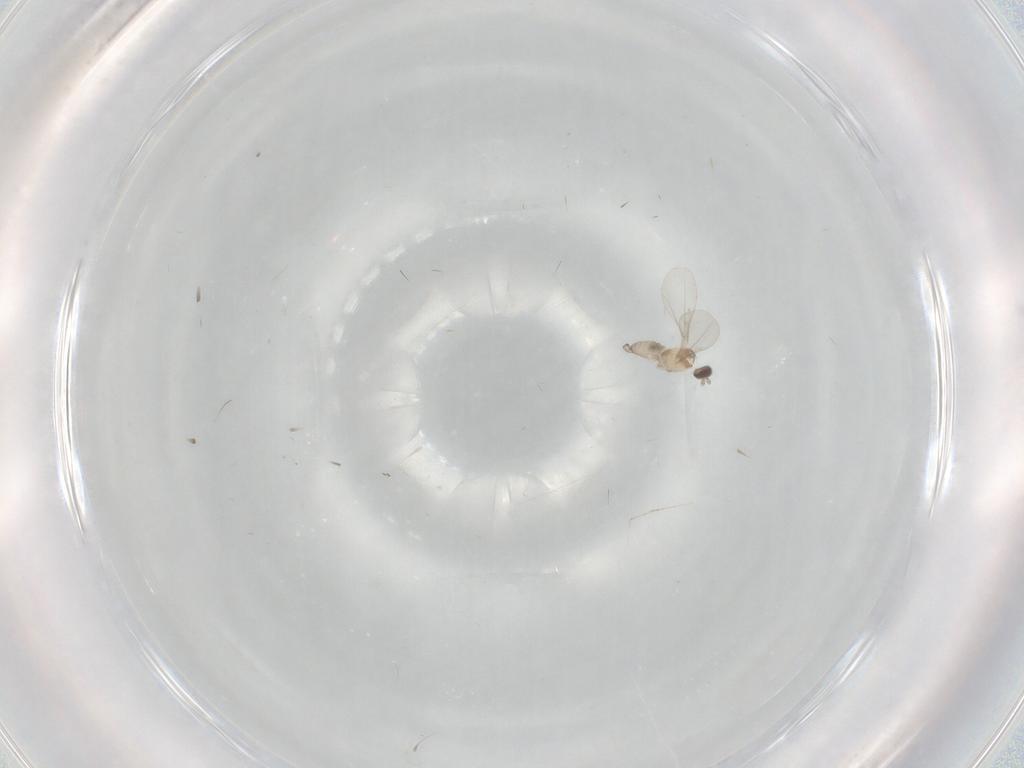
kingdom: Animalia
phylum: Arthropoda
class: Insecta
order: Diptera
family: Cecidomyiidae
